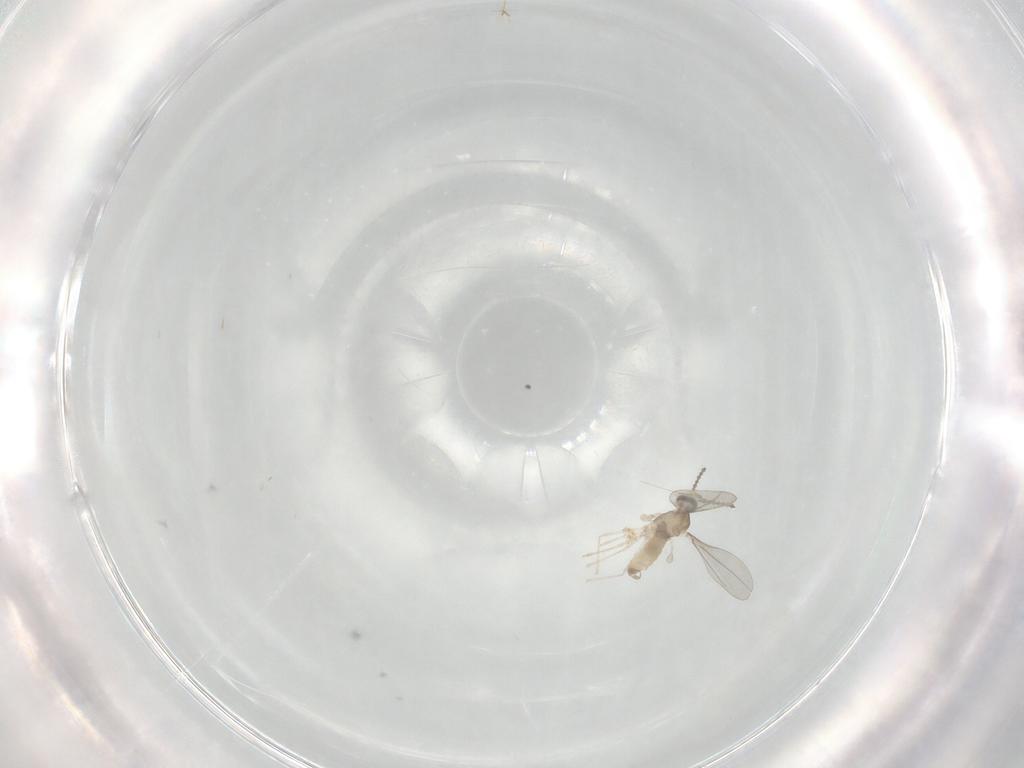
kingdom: Animalia
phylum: Arthropoda
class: Insecta
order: Diptera
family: Cecidomyiidae
